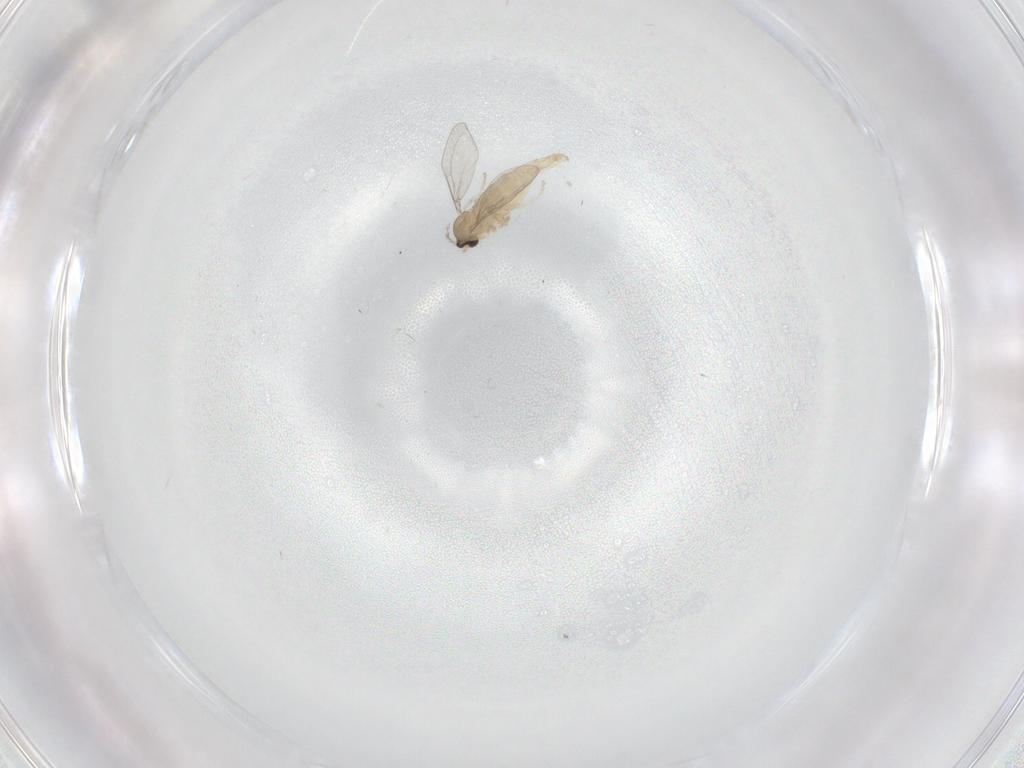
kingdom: Animalia
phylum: Arthropoda
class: Insecta
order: Diptera
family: Cecidomyiidae
